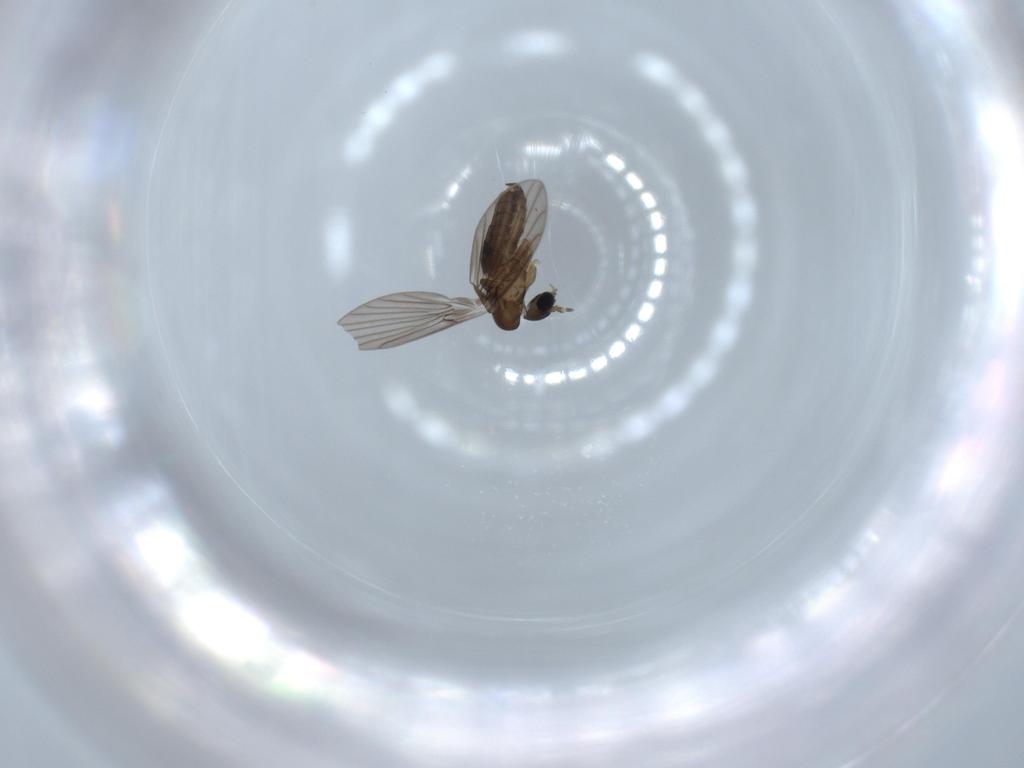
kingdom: Animalia
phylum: Arthropoda
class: Insecta
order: Diptera
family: Psychodidae
